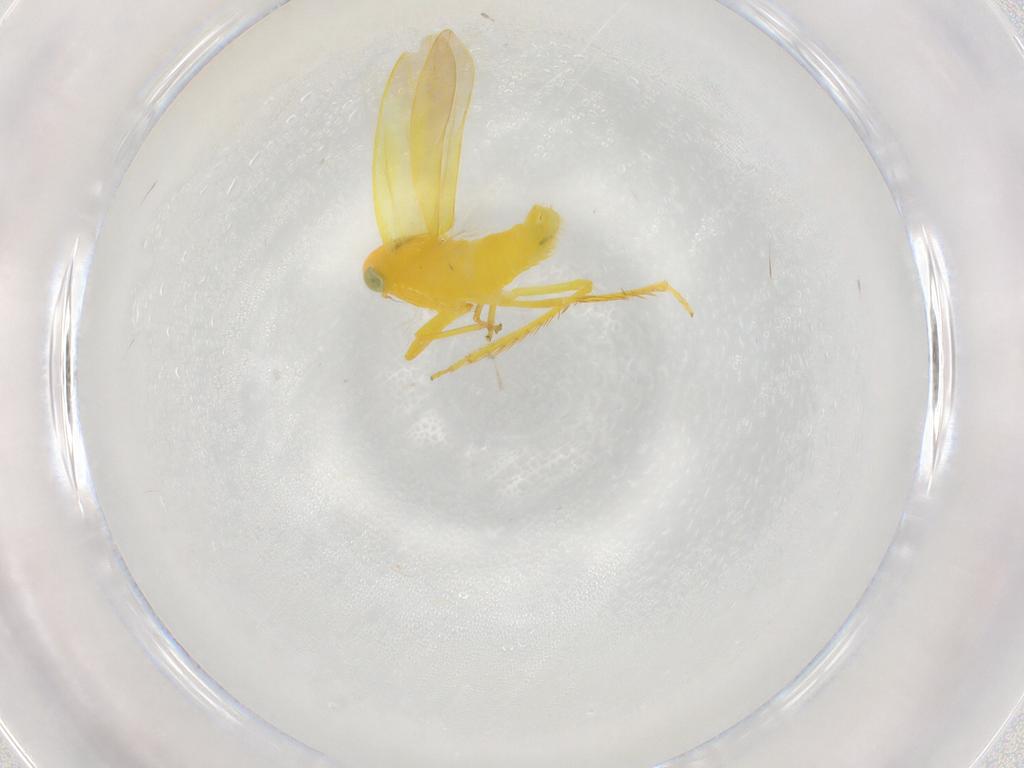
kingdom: Animalia
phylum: Arthropoda
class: Insecta
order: Hemiptera
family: Cicadellidae
